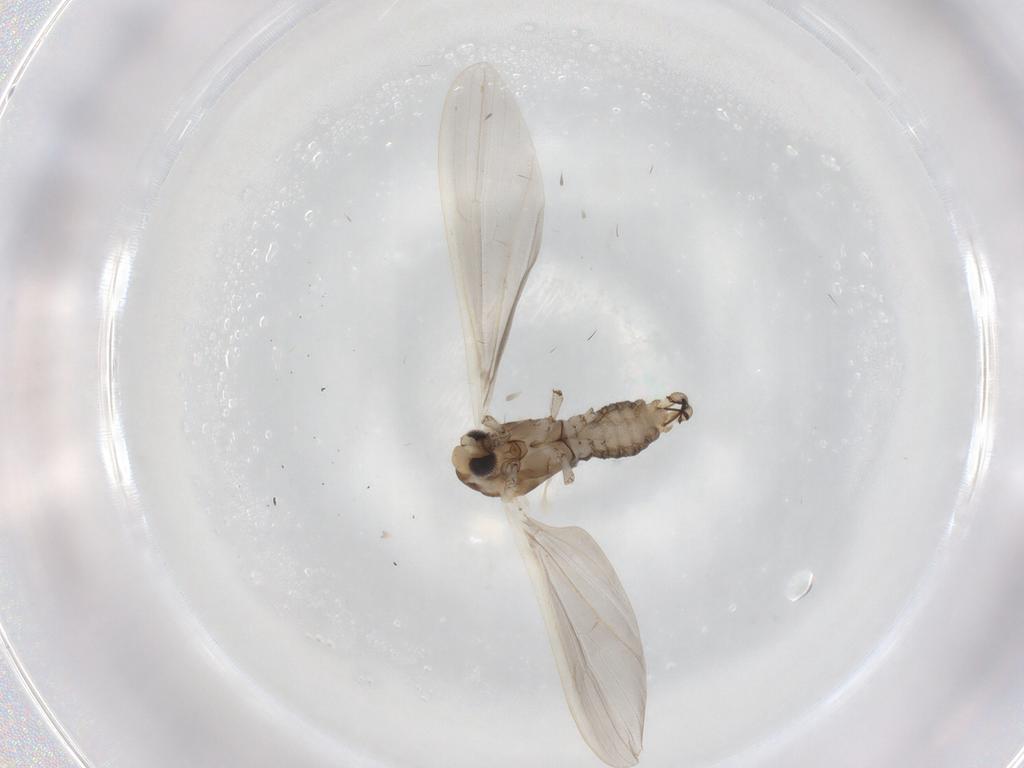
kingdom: Animalia
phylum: Arthropoda
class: Insecta
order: Diptera
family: Limoniidae
